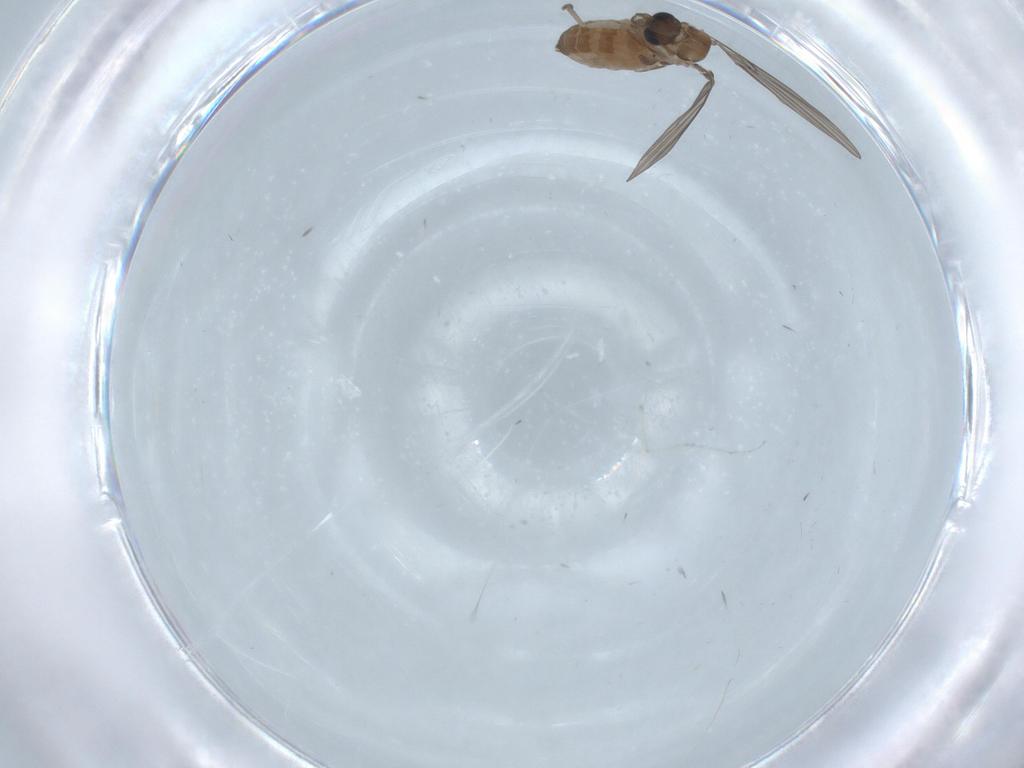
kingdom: Animalia
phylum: Arthropoda
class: Insecta
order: Diptera
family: Cecidomyiidae
